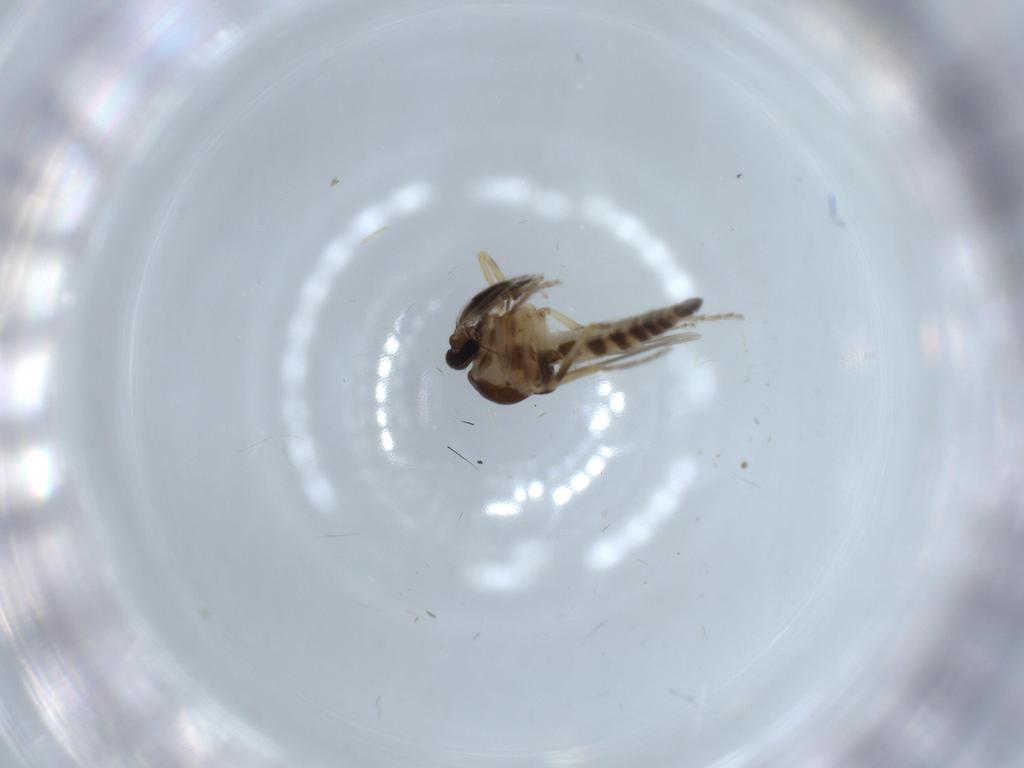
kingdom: Animalia
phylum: Arthropoda
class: Insecta
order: Diptera
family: Ceratopogonidae
